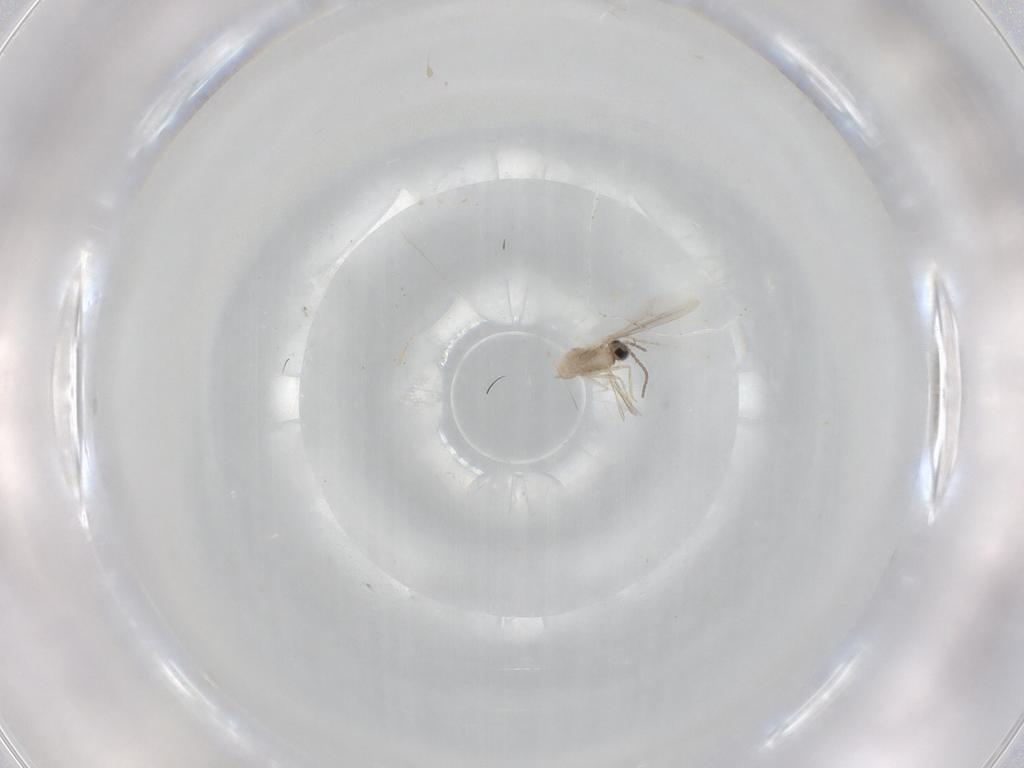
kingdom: Animalia
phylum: Arthropoda
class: Insecta
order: Diptera
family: Cecidomyiidae
